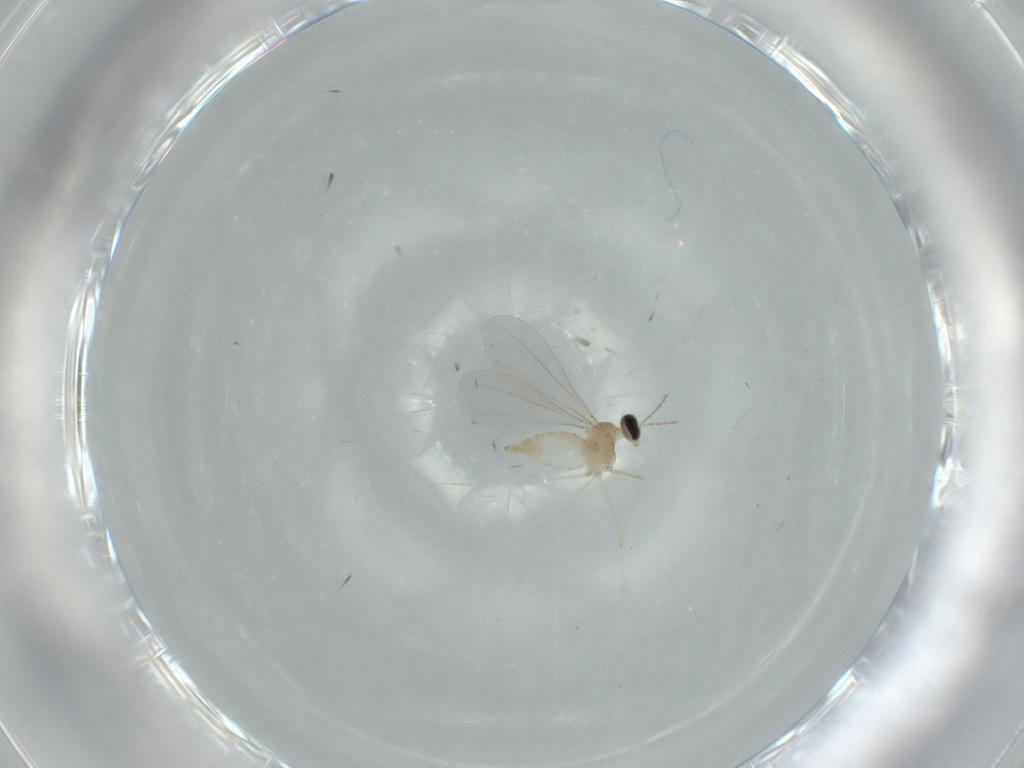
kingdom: Animalia
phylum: Arthropoda
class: Insecta
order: Diptera
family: Cecidomyiidae
